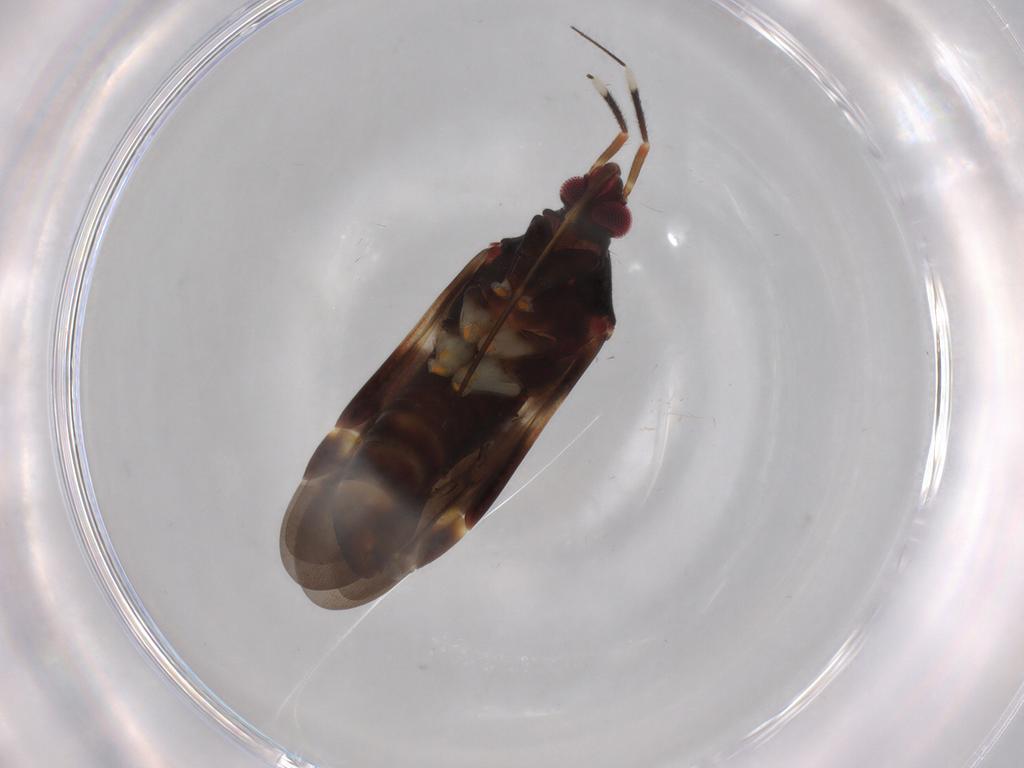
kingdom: Animalia
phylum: Arthropoda
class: Insecta
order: Hemiptera
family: Miridae
